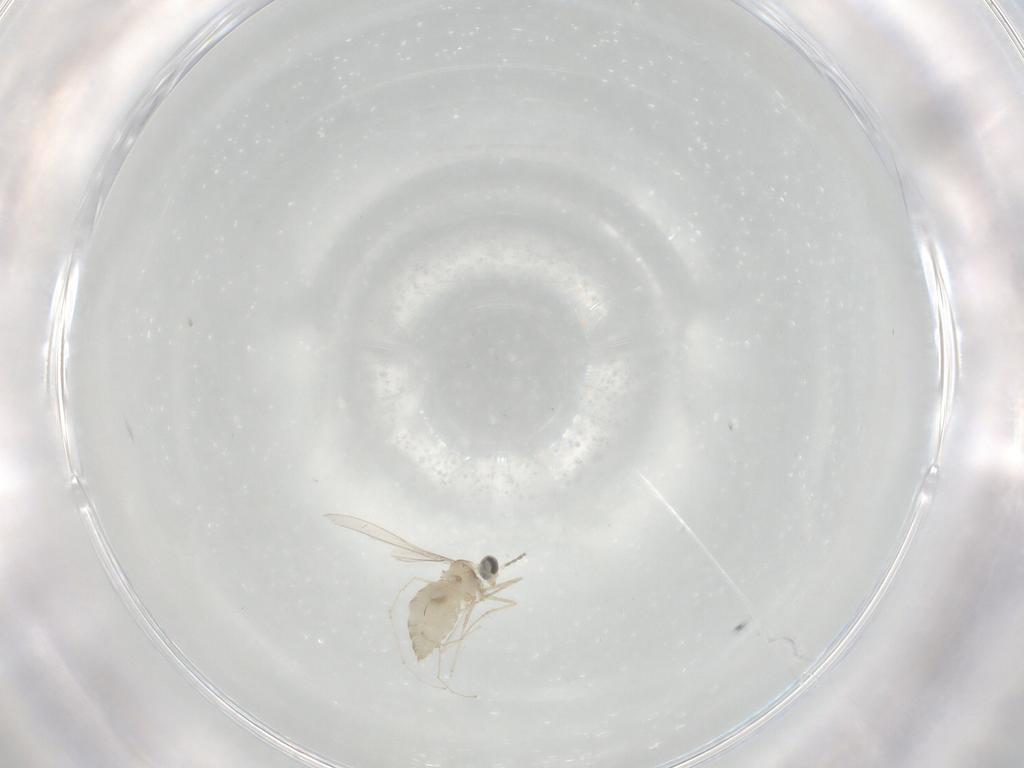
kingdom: Animalia
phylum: Arthropoda
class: Insecta
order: Diptera
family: Cecidomyiidae
